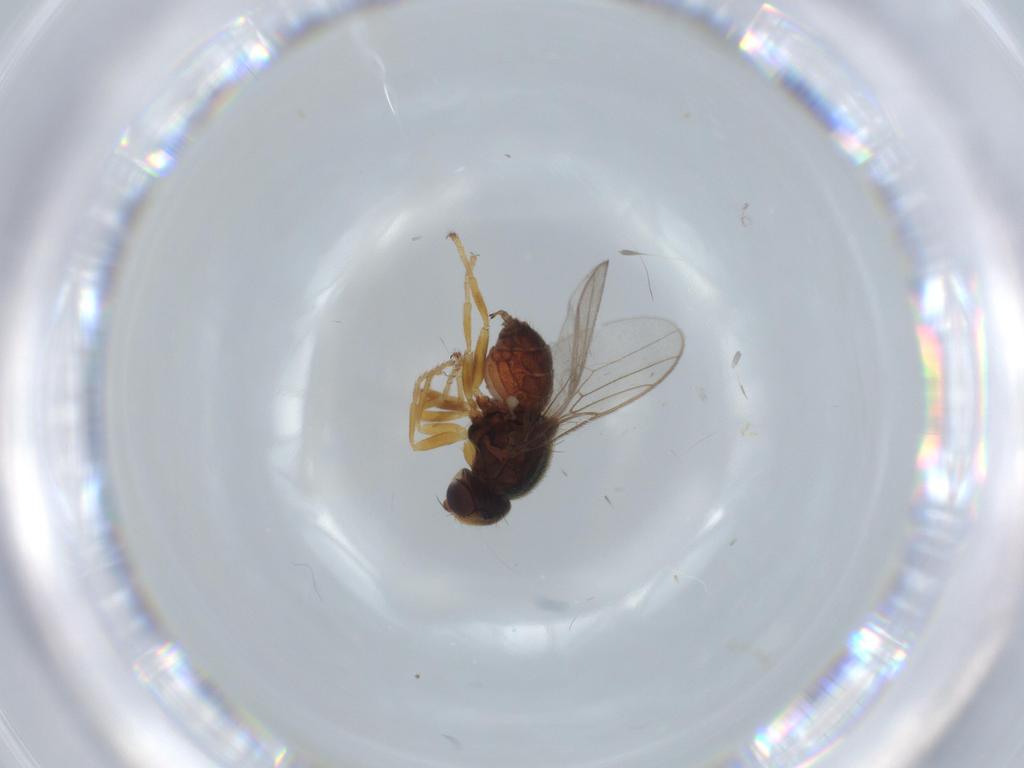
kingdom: Animalia
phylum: Arthropoda
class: Insecta
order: Diptera
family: Chloropidae
